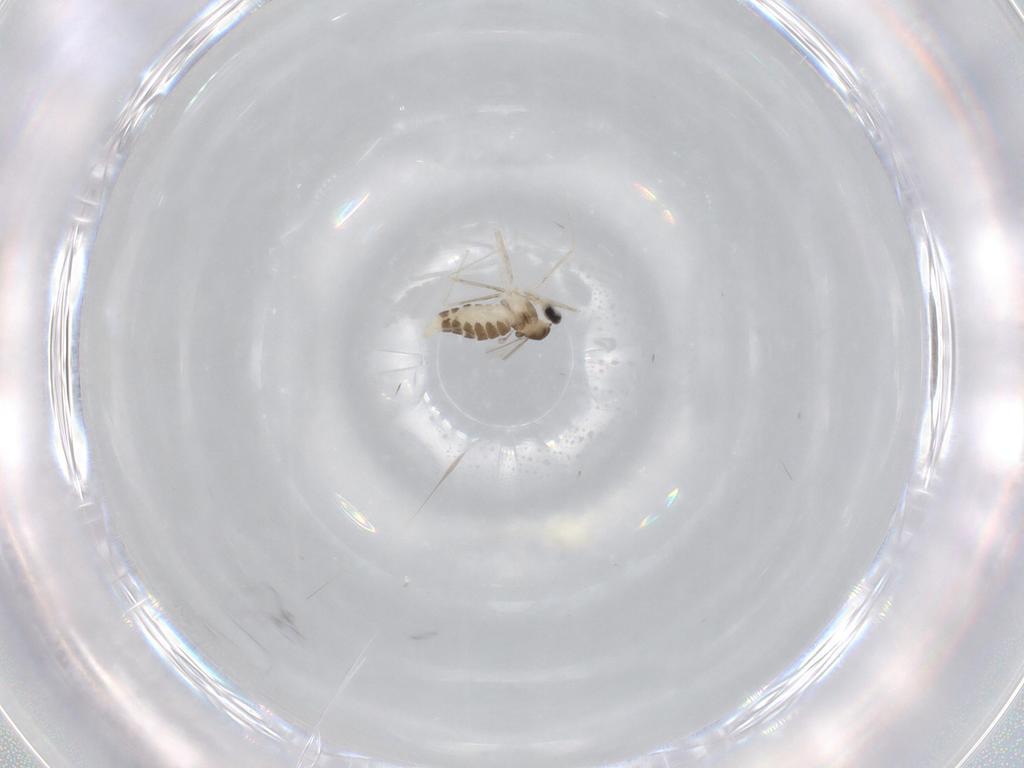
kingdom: Animalia
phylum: Arthropoda
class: Insecta
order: Diptera
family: Cecidomyiidae
